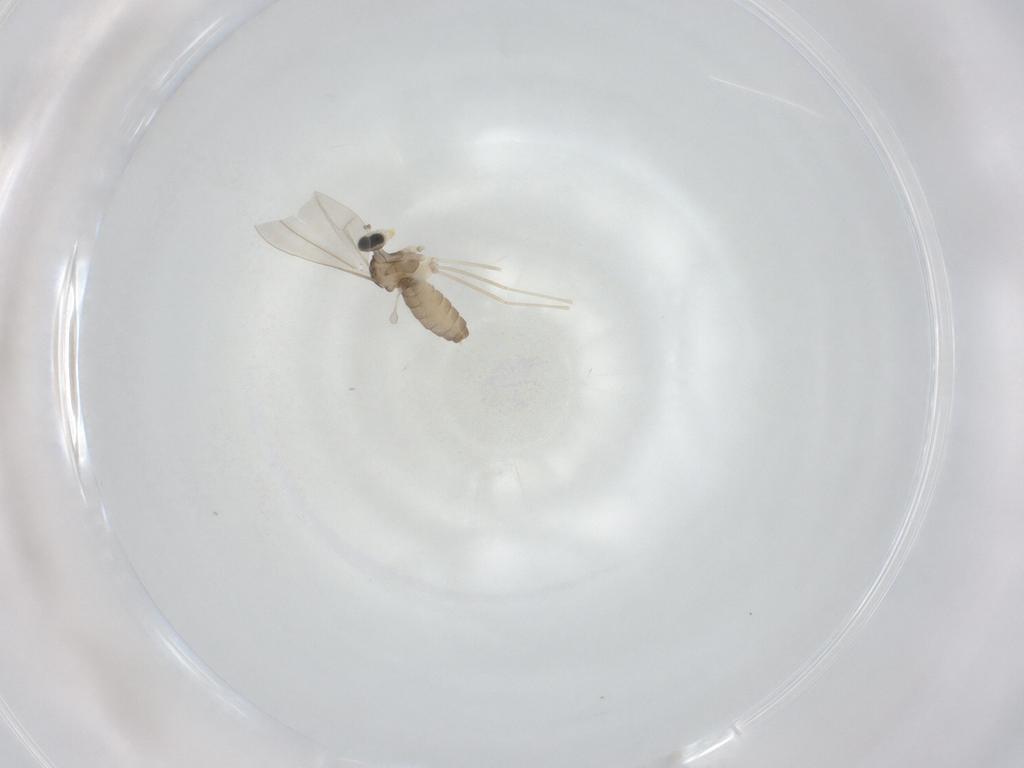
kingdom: Animalia
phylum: Arthropoda
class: Insecta
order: Diptera
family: Cecidomyiidae
